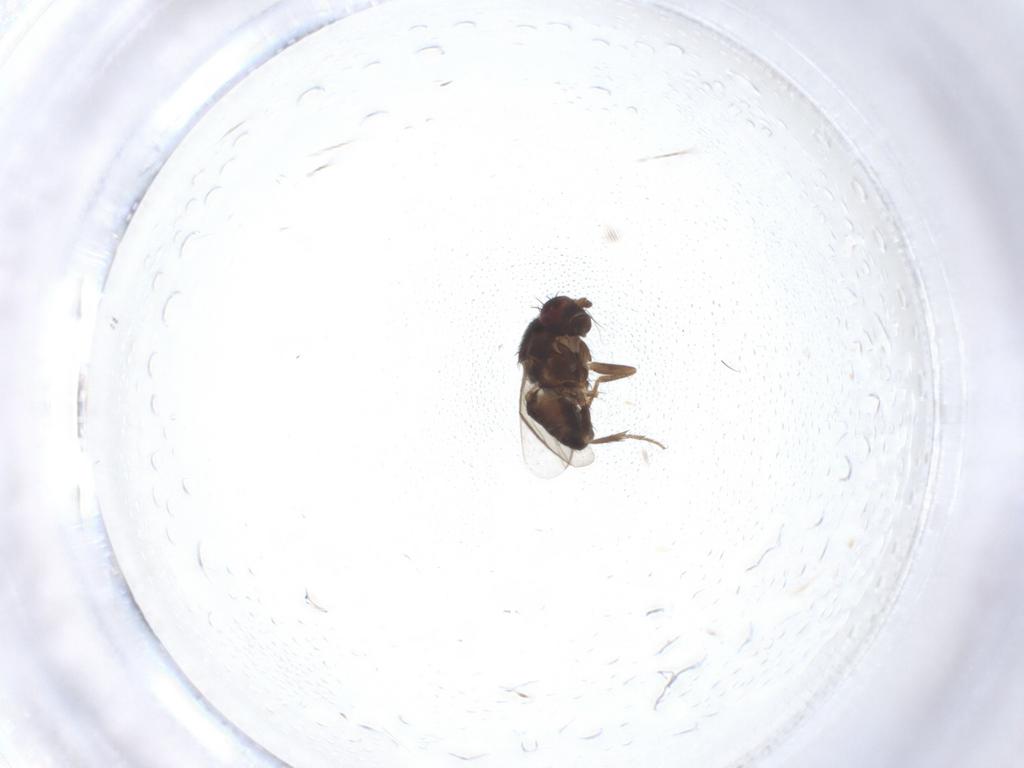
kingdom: Animalia
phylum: Arthropoda
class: Insecta
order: Diptera
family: Sphaeroceridae
